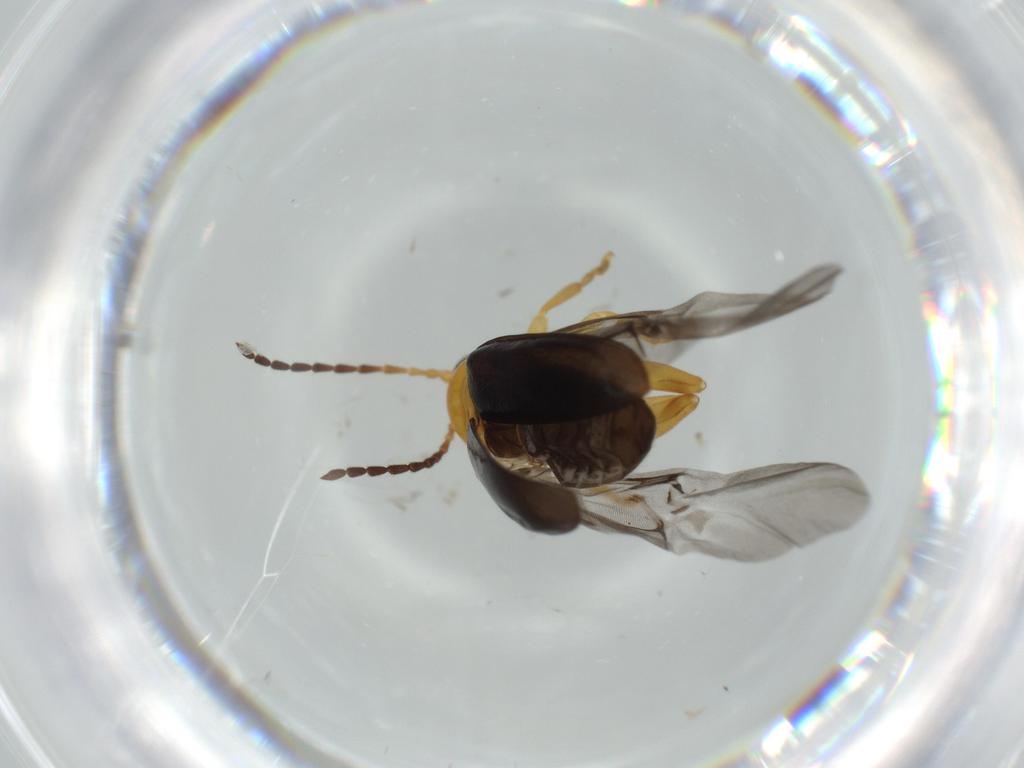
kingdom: Animalia
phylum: Arthropoda
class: Insecta
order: Coleoptera
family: Chrysomelidae
